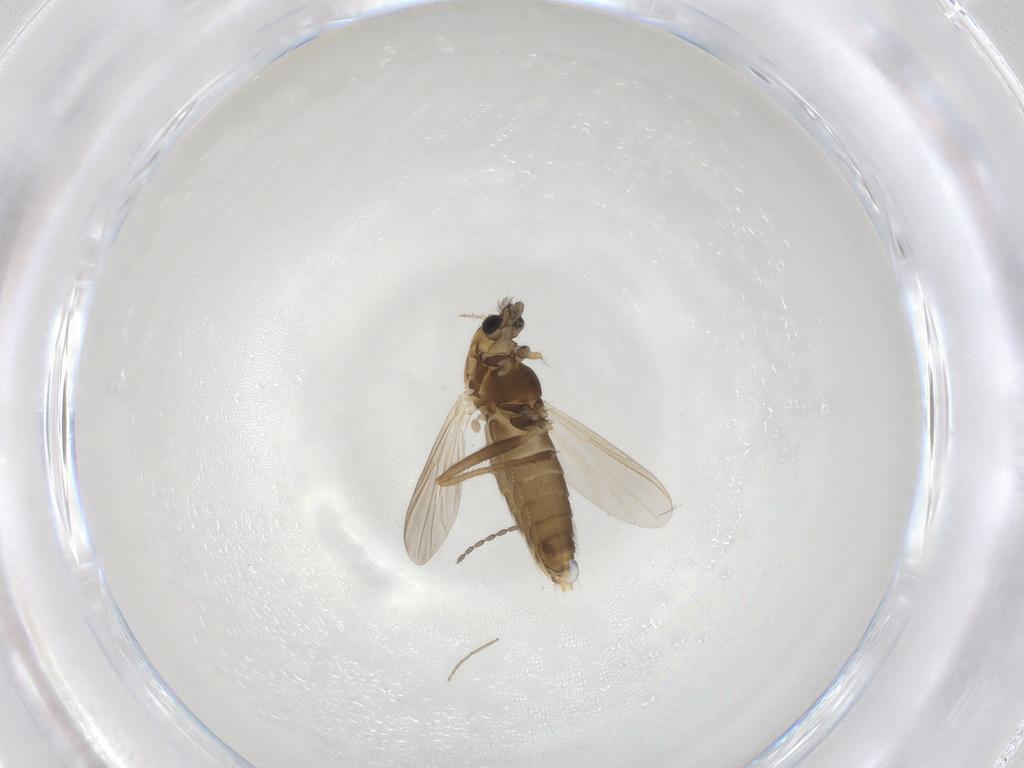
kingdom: Animalia
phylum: Arthropoda
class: Insecta
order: Diptera
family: Chironomidae
